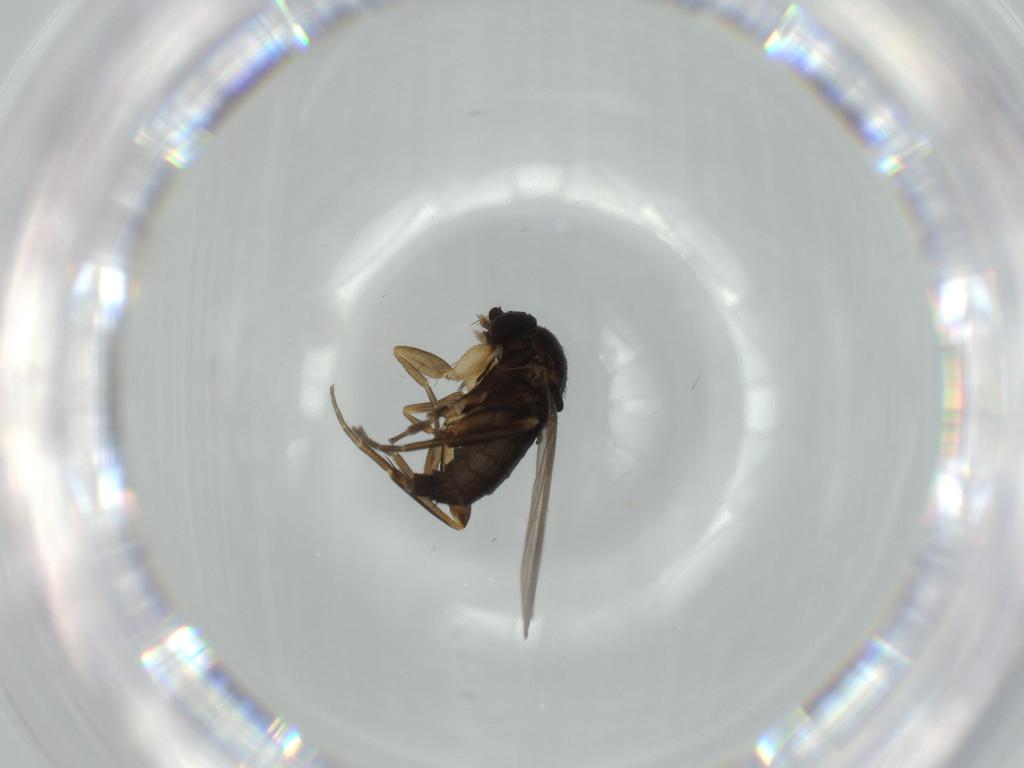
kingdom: Animalia
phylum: Arthropoda
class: Insecta
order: Diptera
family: Phoridae
